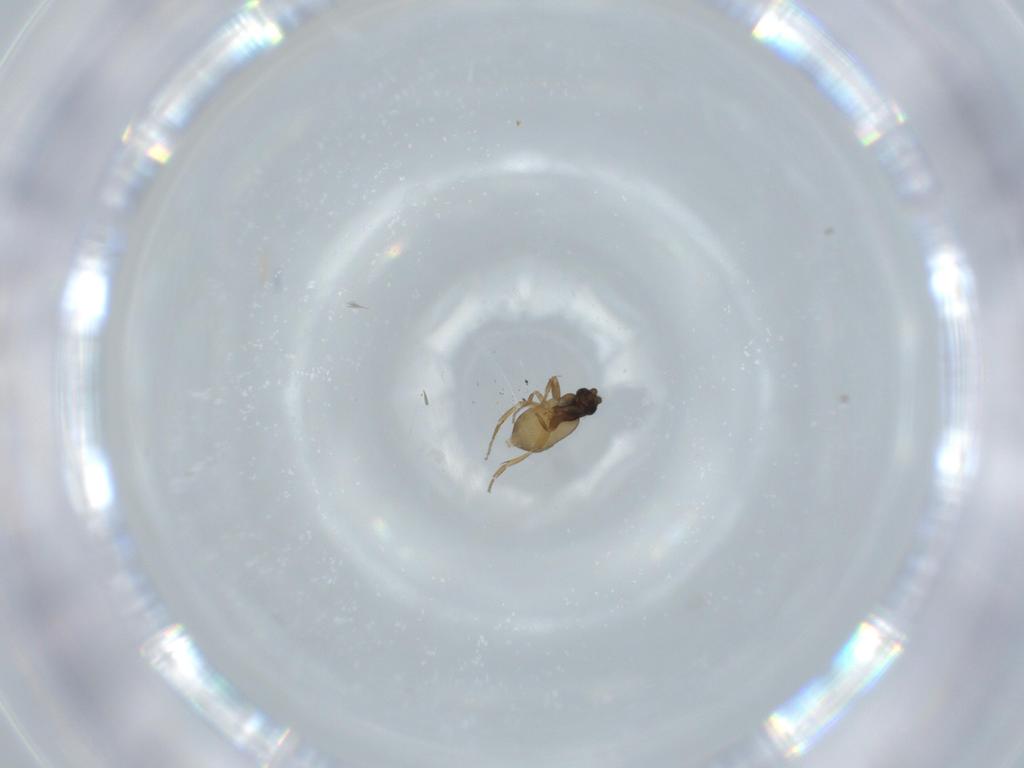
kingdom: Animalia
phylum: Arthropoda
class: Insecta
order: Diptera
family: Phoridae
